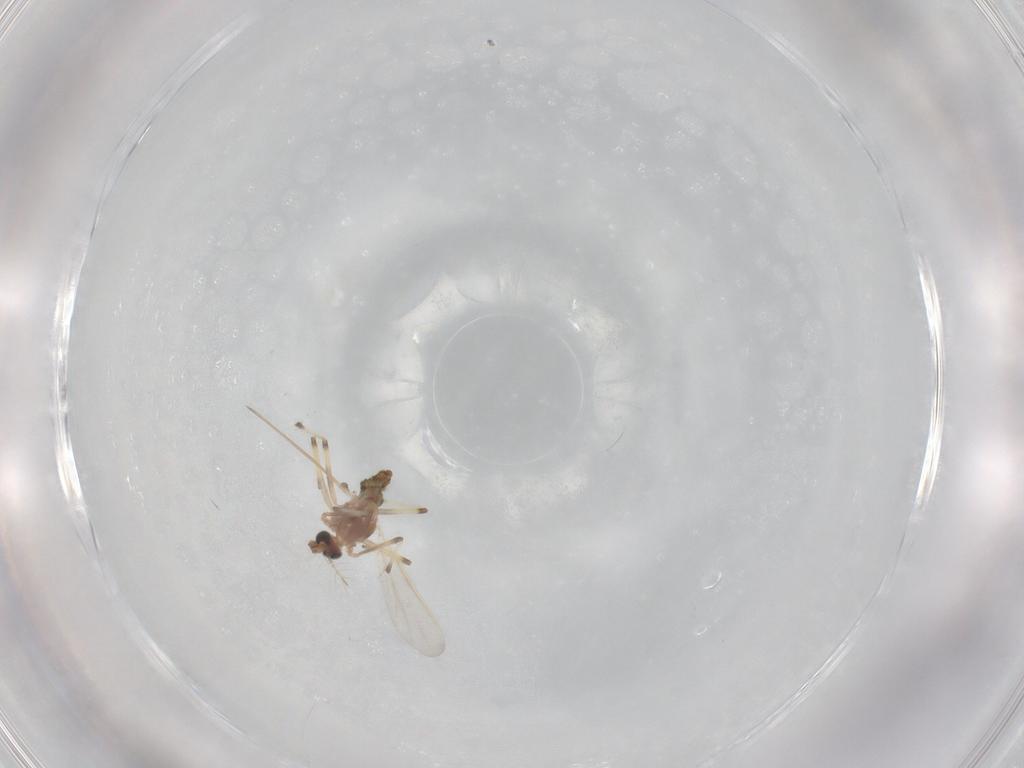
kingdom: Animalia
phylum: Arthropoda
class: Insecta
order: Diptera
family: Chironomidae
